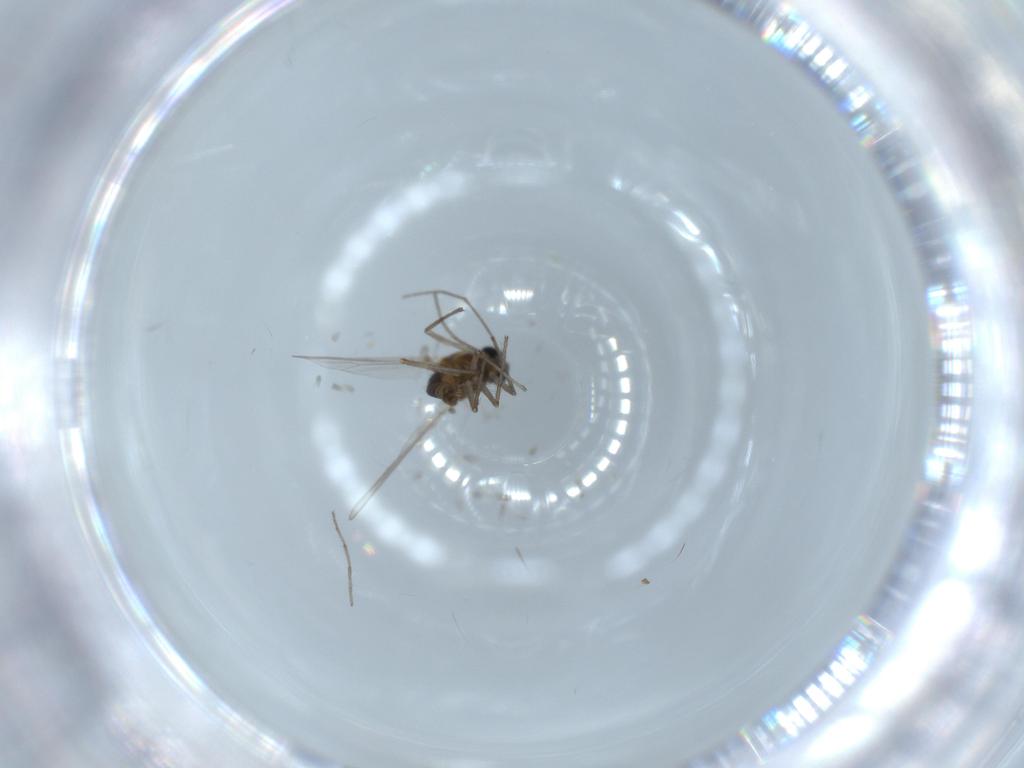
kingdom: Animalia
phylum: Arthropoda
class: Insecta
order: Diptera
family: Chironomidae
